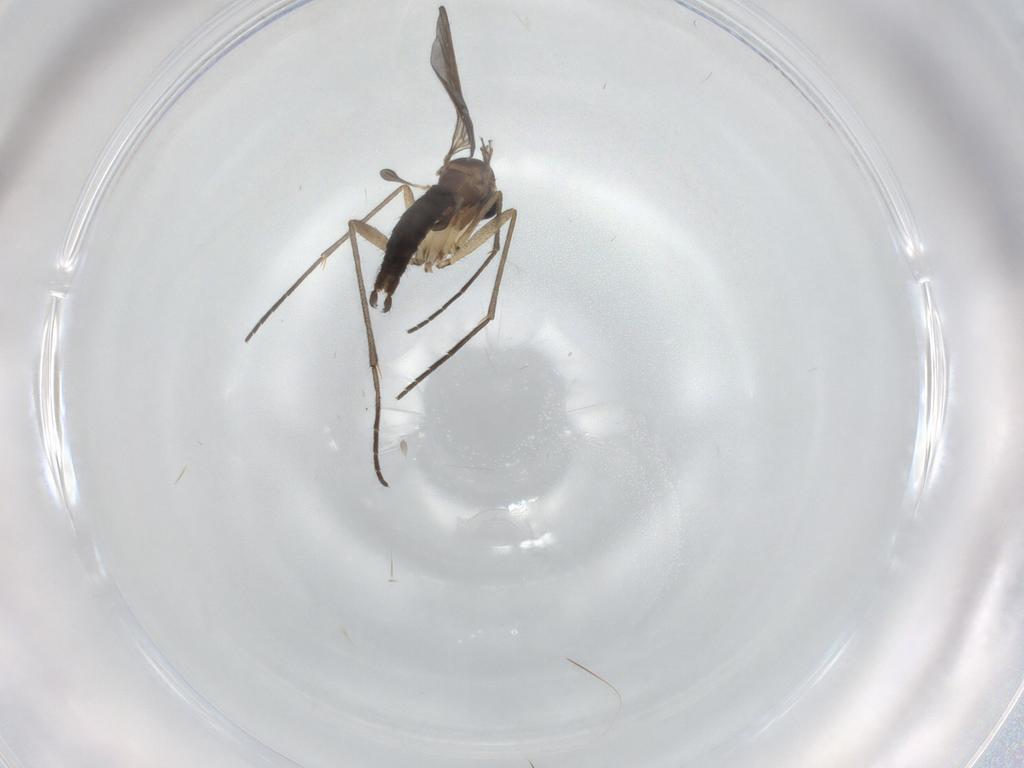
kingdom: Animalia
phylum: Arthropoda
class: Insecta
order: Diptera
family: Sciaridae
